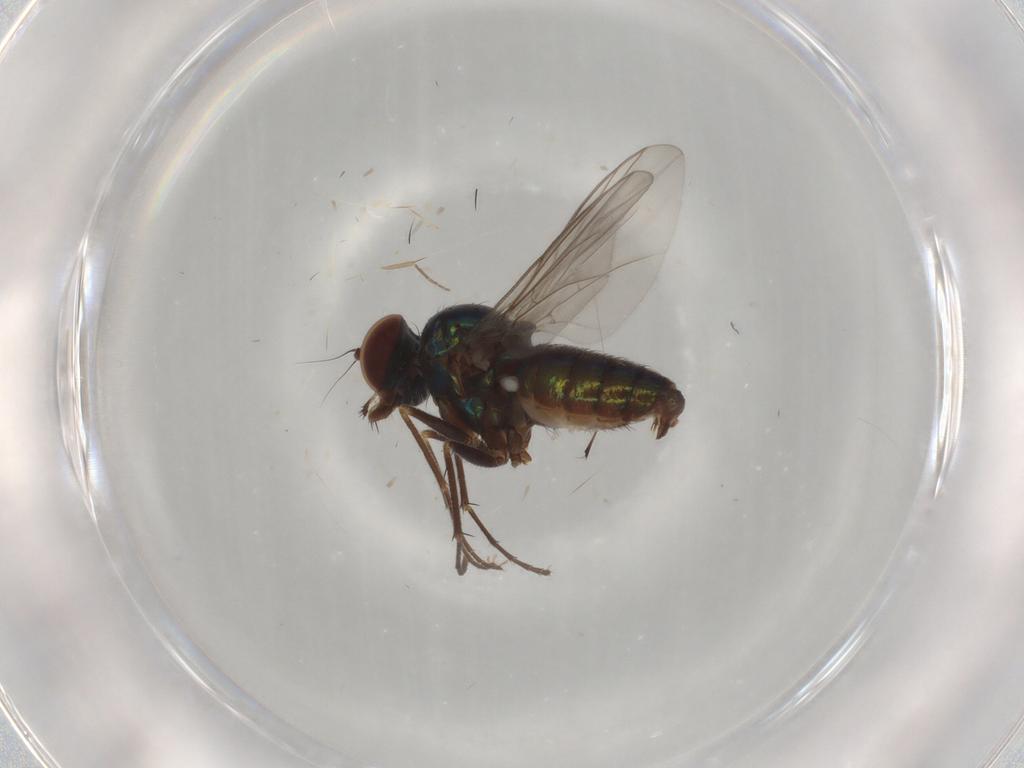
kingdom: Animalia
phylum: Arthropoda
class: Insecta
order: Diptera
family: Dolichopodidae
